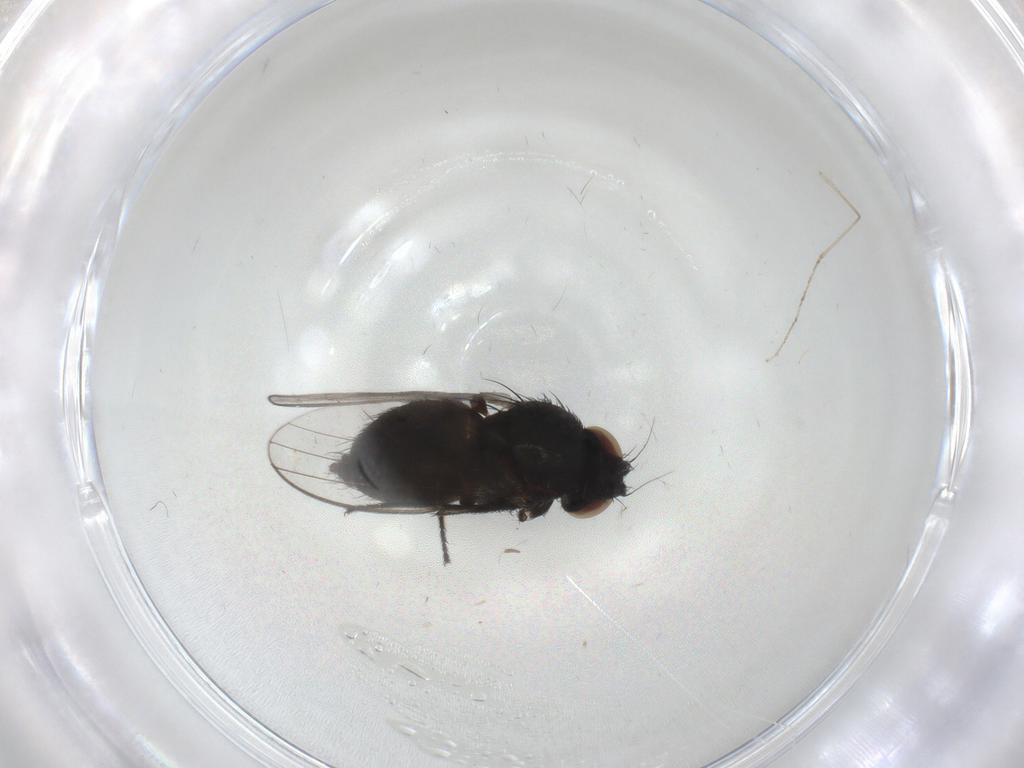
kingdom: Animalia
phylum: Arthropoda
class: Insecta
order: Diptera
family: Milichiidae
